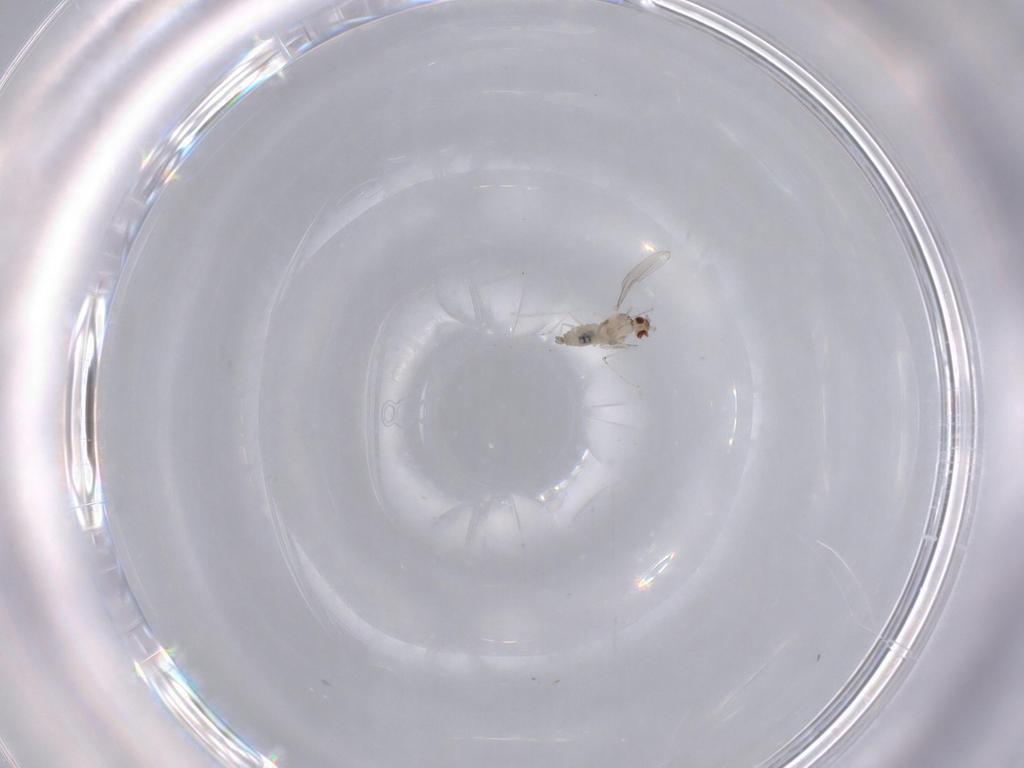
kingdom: Animalia
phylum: Arthropoda
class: Insecta
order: Diptera
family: Cecidomyiidae
